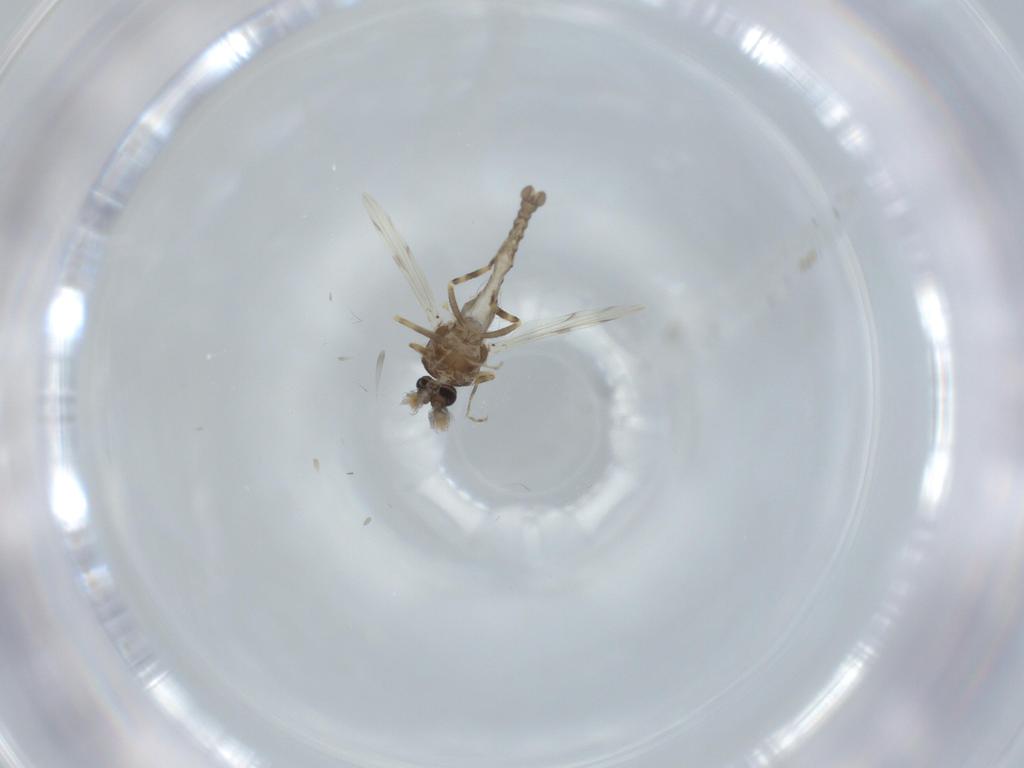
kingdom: Animalia
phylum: Arthropoda
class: Insecta
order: Diptera
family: Ceratopogonidae
